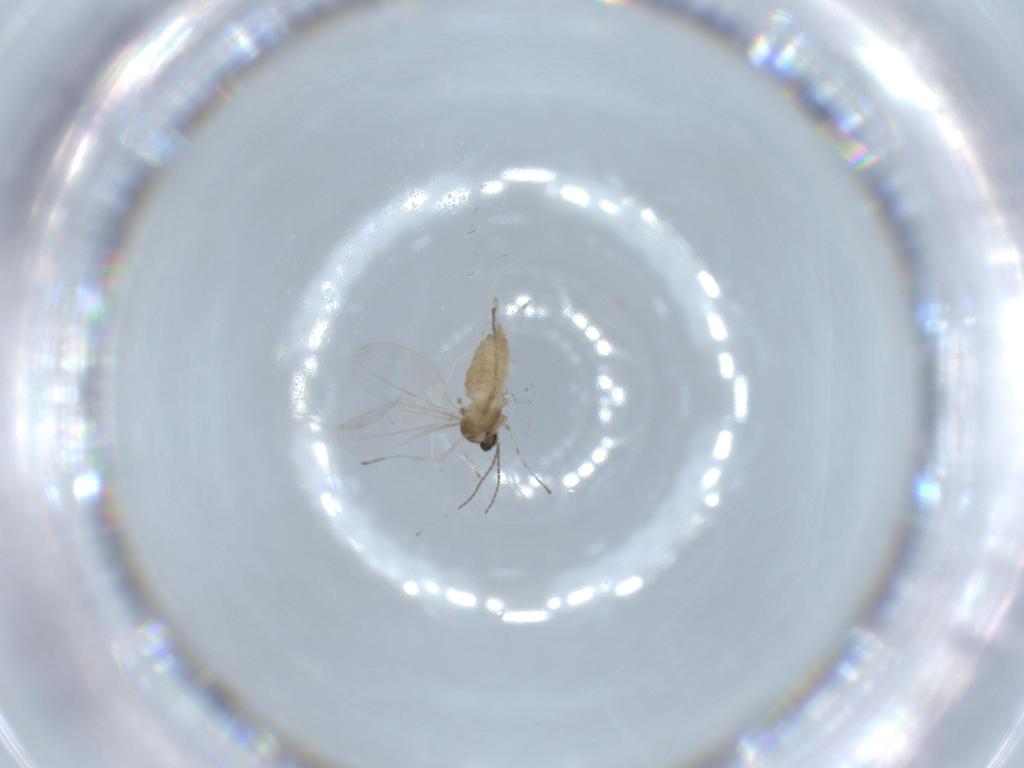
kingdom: Animalia
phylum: Arthropoda
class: Insecta
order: Diptera
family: Cecidomyiidae
